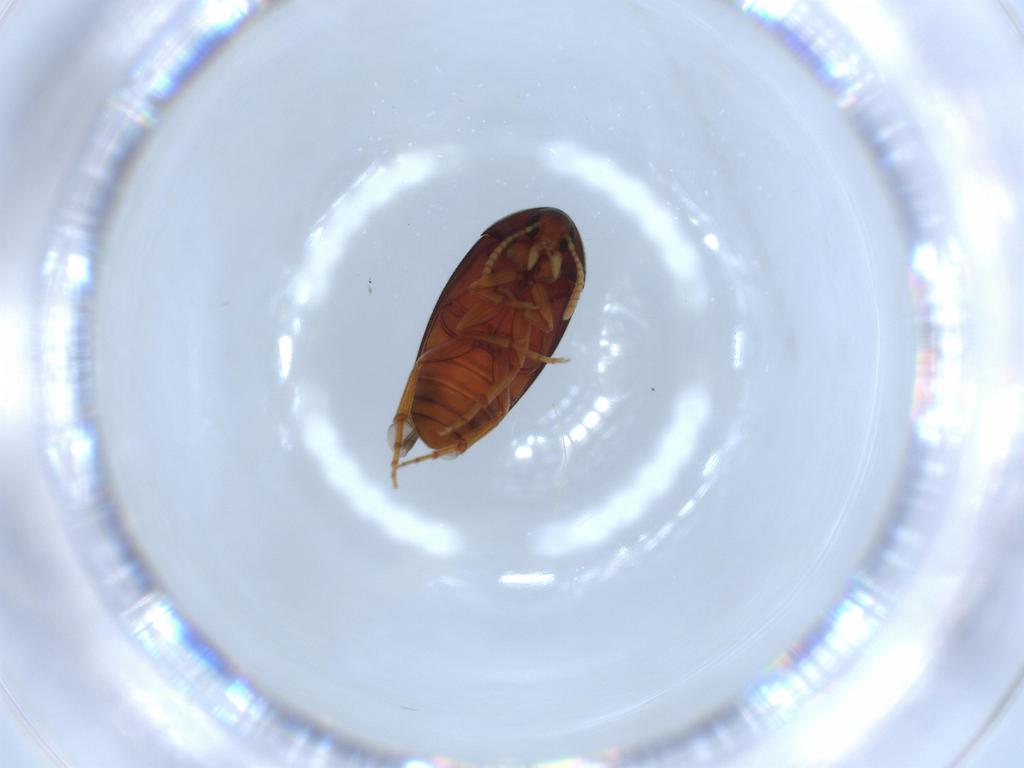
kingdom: Animalia
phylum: Arthropoda
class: Insecta
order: Coleoptera
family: Scraptiidae
